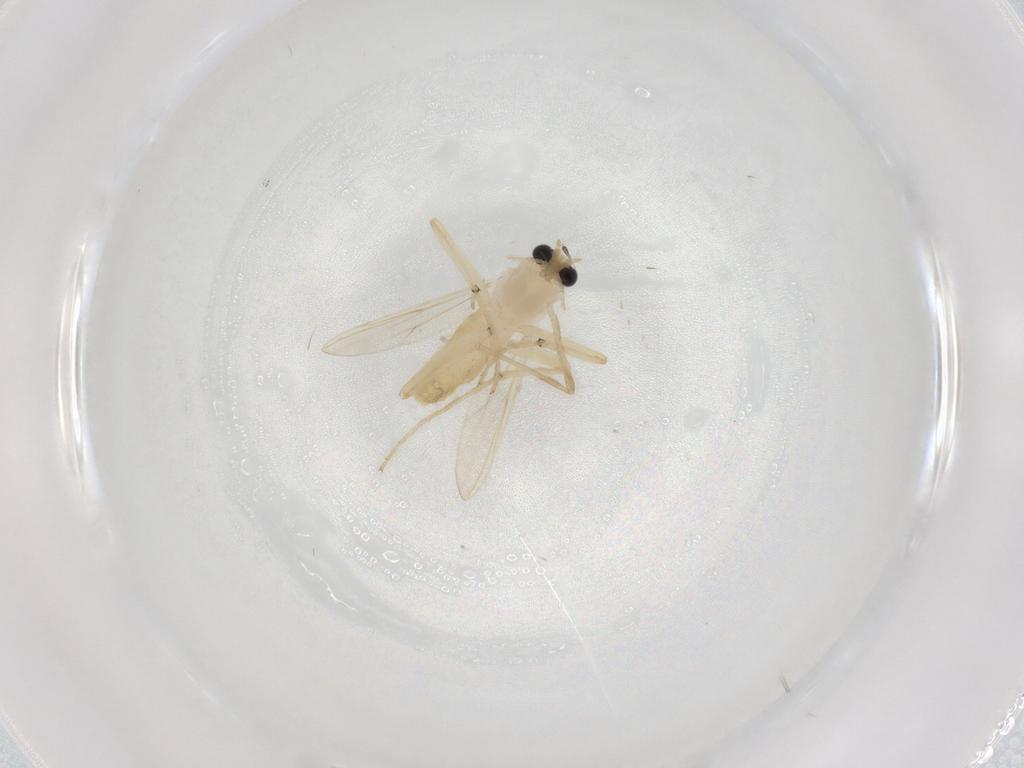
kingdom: Animalia
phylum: Arthropoda
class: Insecta
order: Diptera
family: Chironomidae
